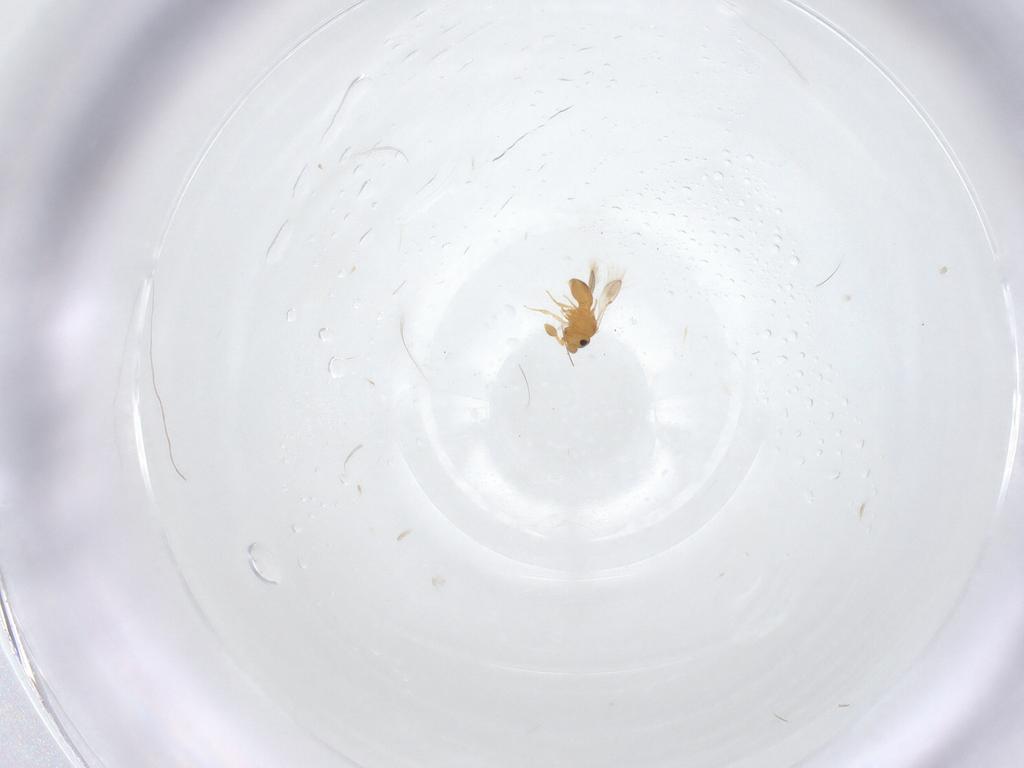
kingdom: Animalia
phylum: Arthropoda
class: Insecta
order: Hymenoptera
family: Scelionidae
